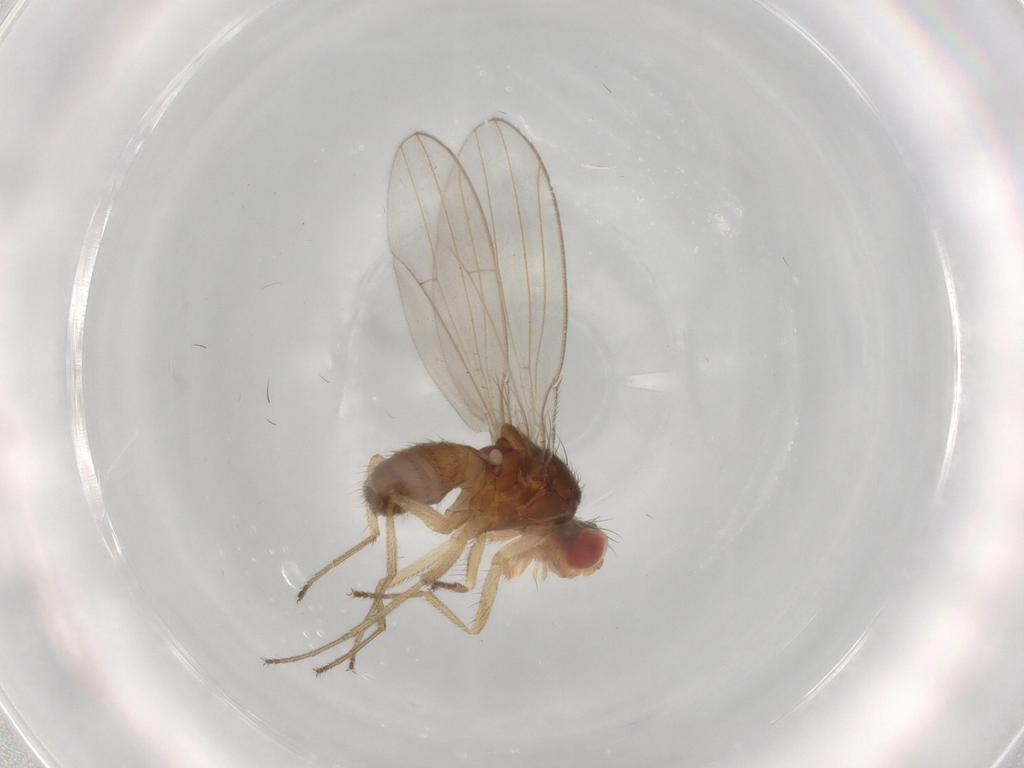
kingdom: Animalia
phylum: Arthropoda
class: Insecta
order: Diptera
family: Drosophilidae
